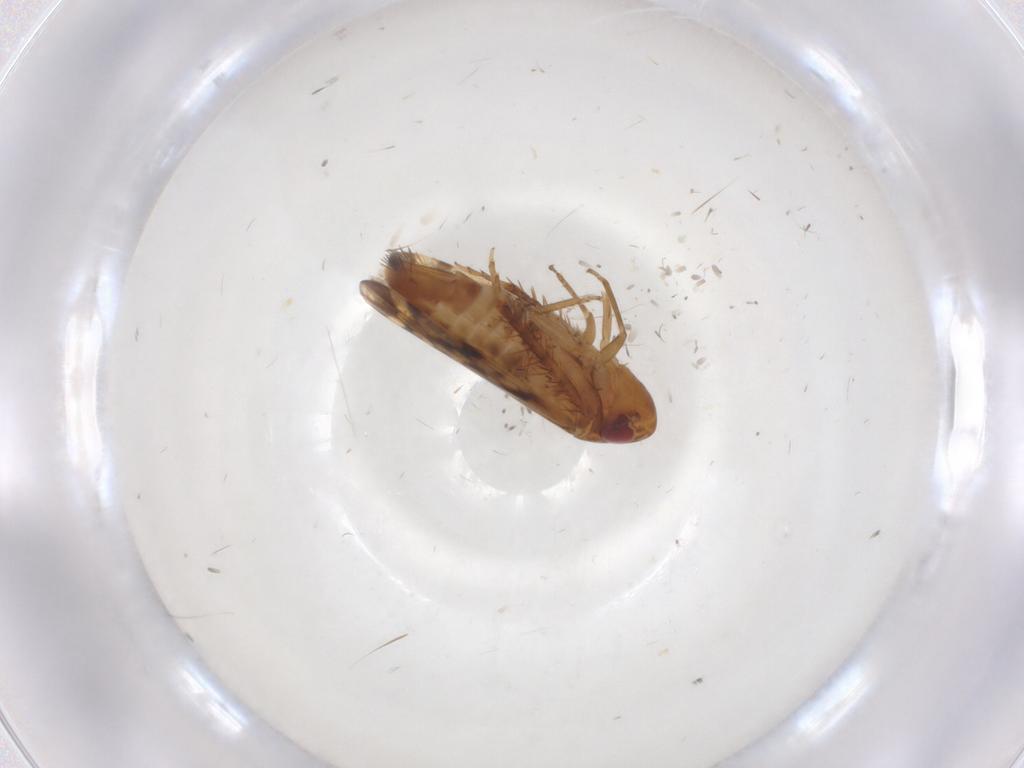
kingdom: Animalia
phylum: Arthropoda
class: Insecta
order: Hemiptera
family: Cicadellidae
